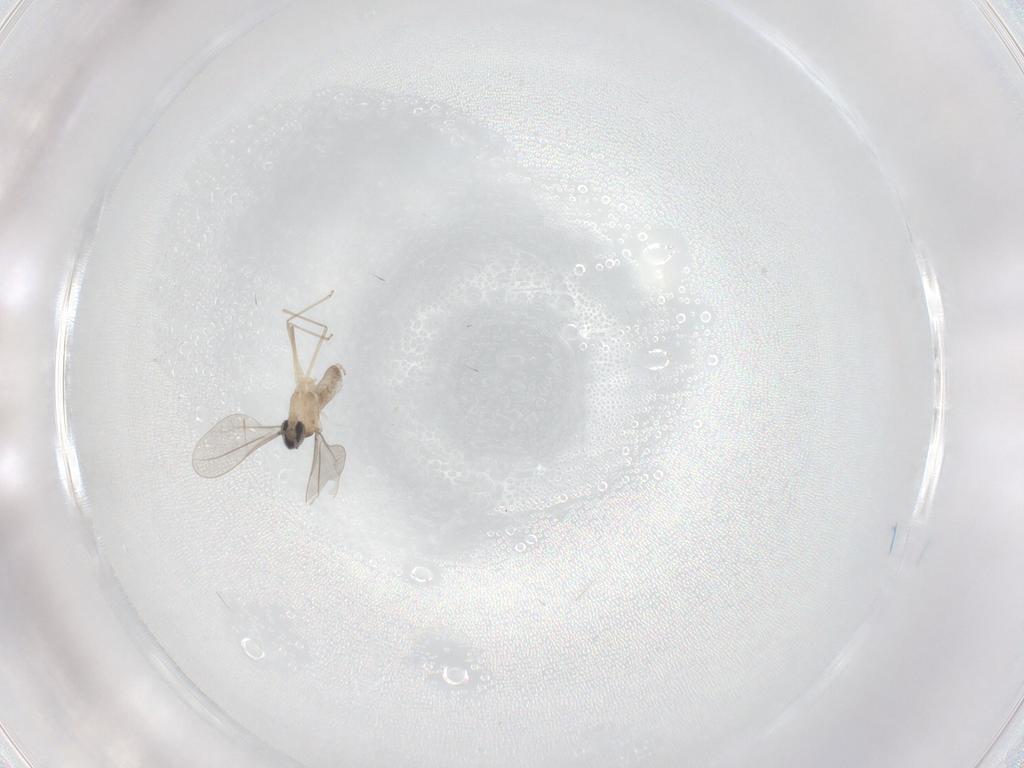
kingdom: Animalia
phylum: Arthropoda
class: Insecta
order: Diptera
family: Cecidomyiidae
